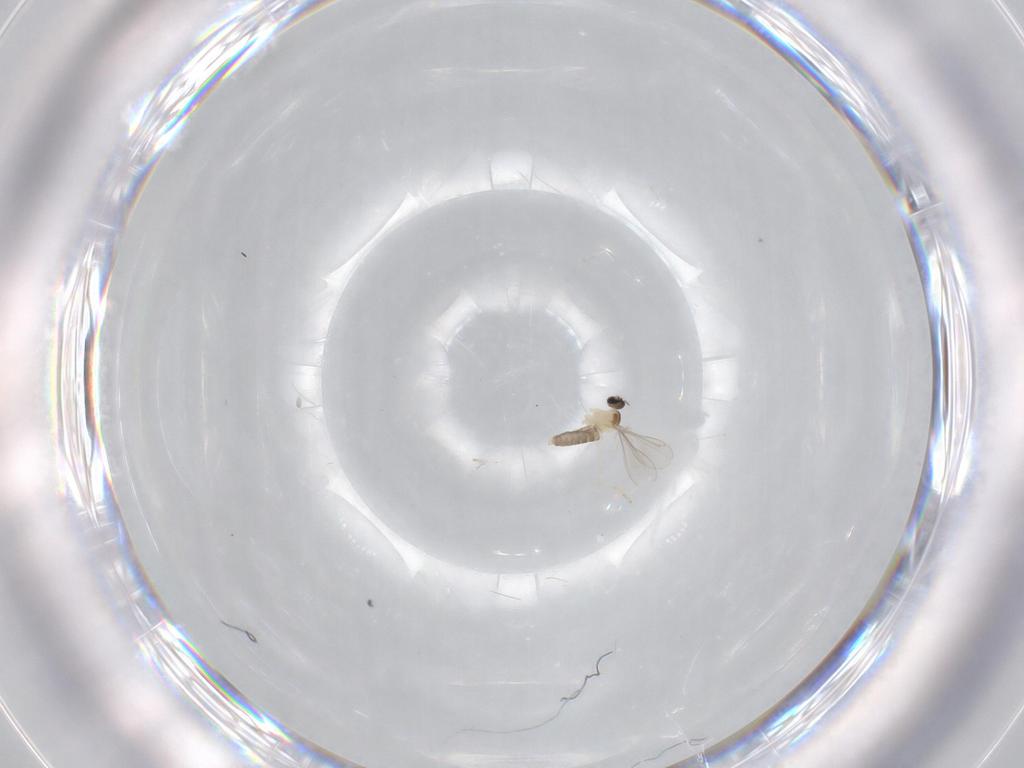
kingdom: Animalia
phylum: Arthropoda
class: Insecta
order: Diptera
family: Cecidomyiidae
